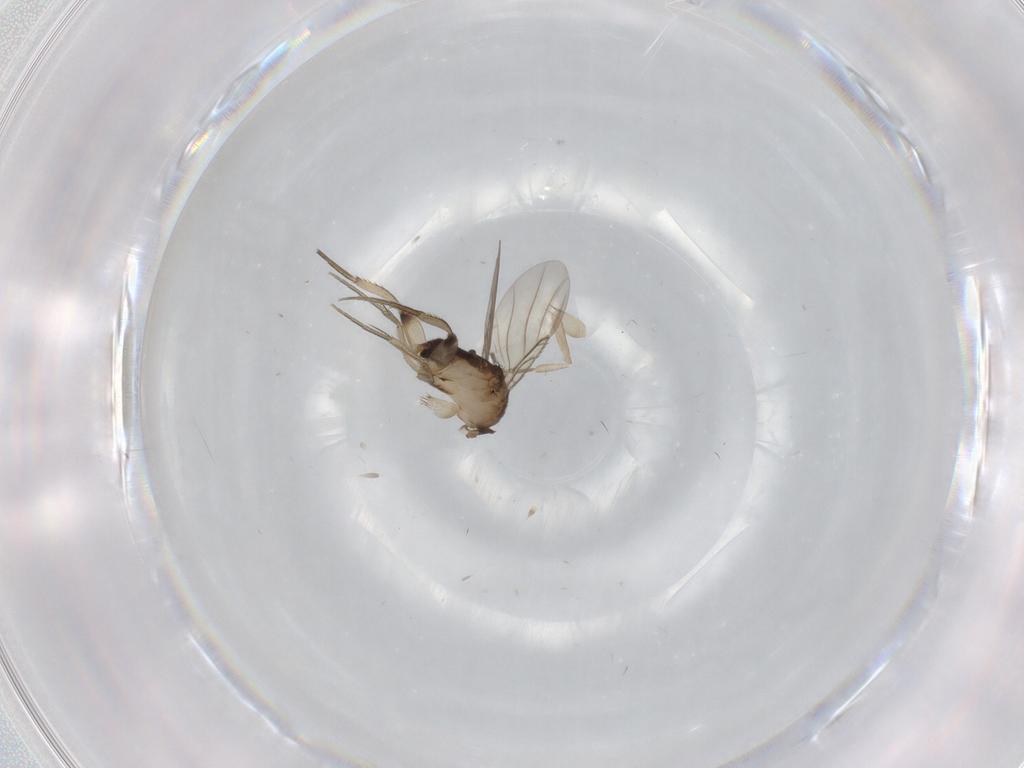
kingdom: Animalia
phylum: Arthropoda
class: Insecta
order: Diptera
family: Phoridae
